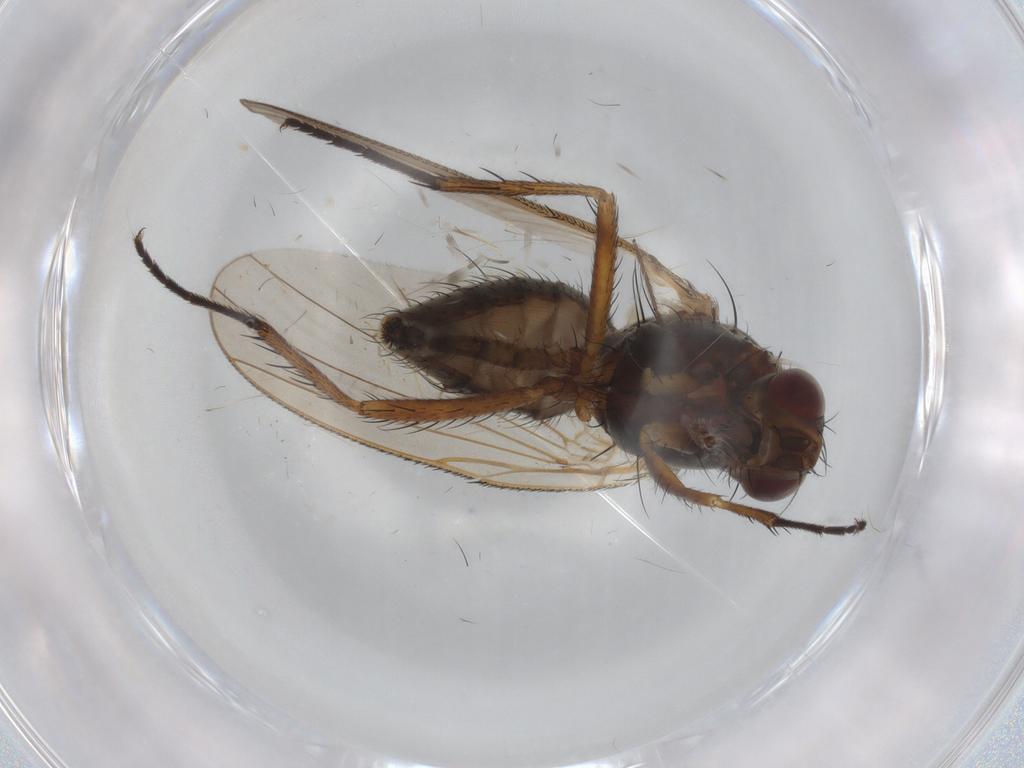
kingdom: Animalia
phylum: Arthropoda
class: Insecta
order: Diptera
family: Anthomyiidae
